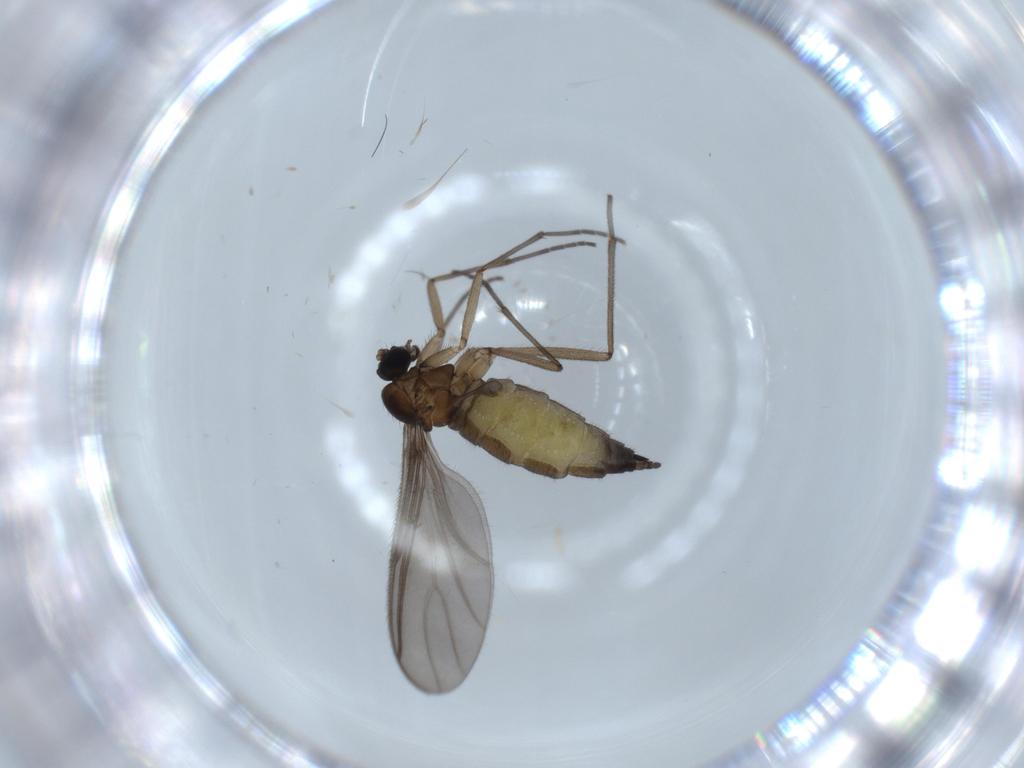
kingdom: Animalia
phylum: Arthropoda
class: Insecta
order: Diptera
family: Sciaridae
